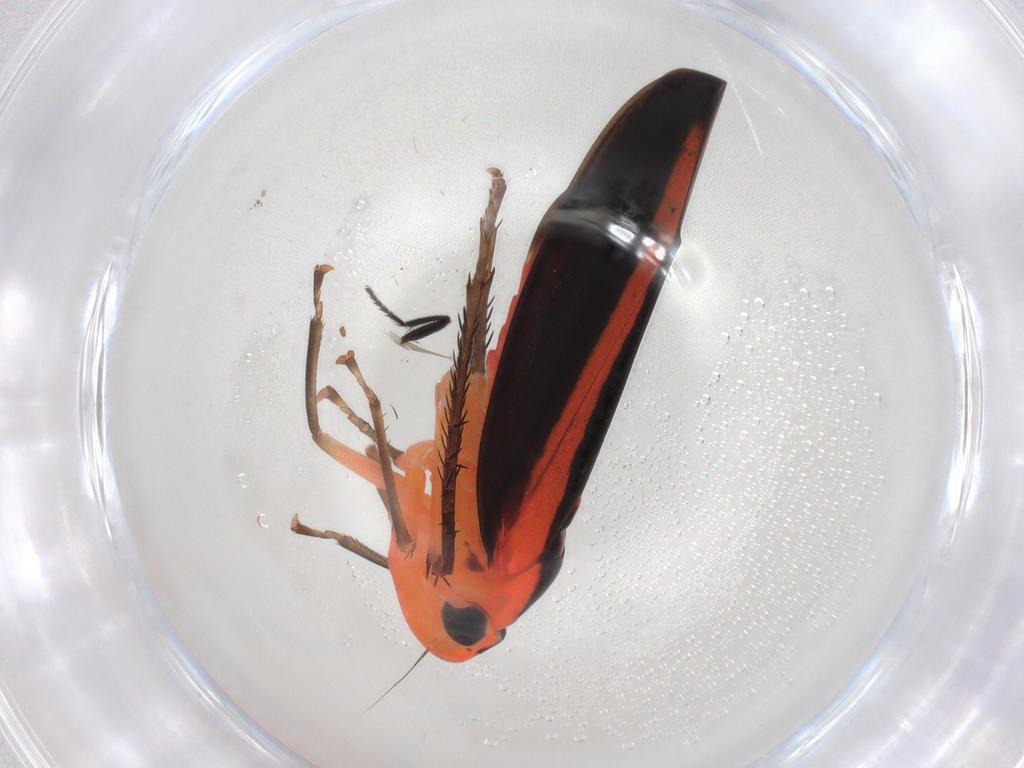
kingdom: Animalia
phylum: Arthropoda
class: Insecta
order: Hemiptera
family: Cicadellidae
